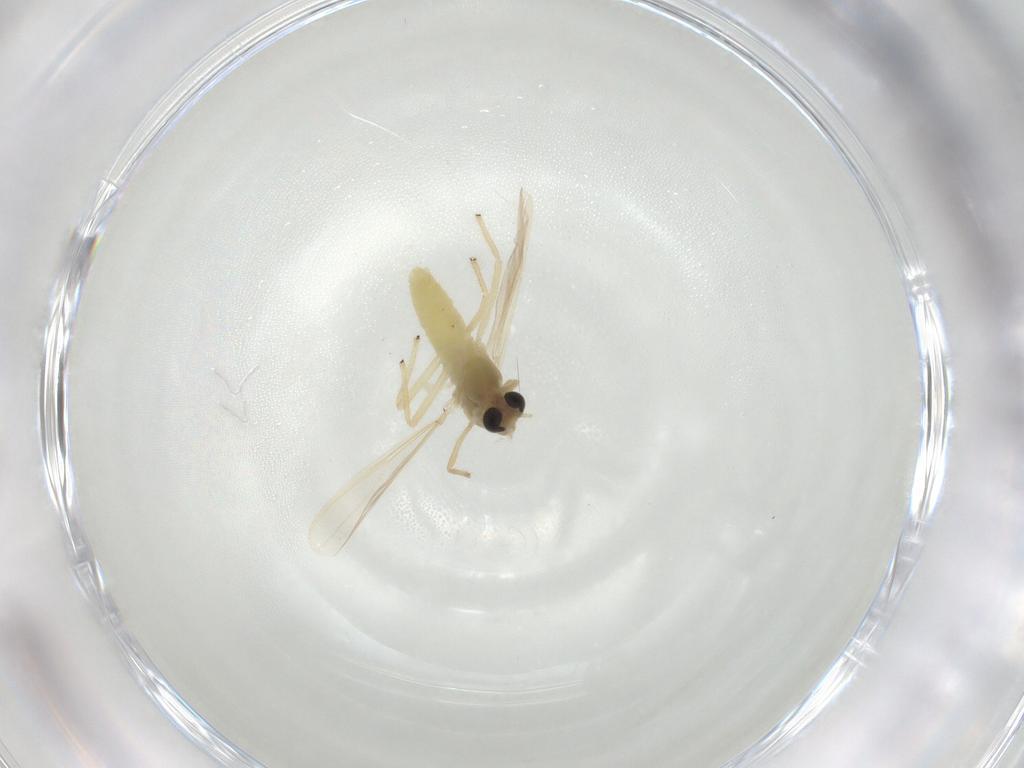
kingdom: Animalia
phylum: Arthropoda
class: Insecta
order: Diptera
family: Chironomidae
